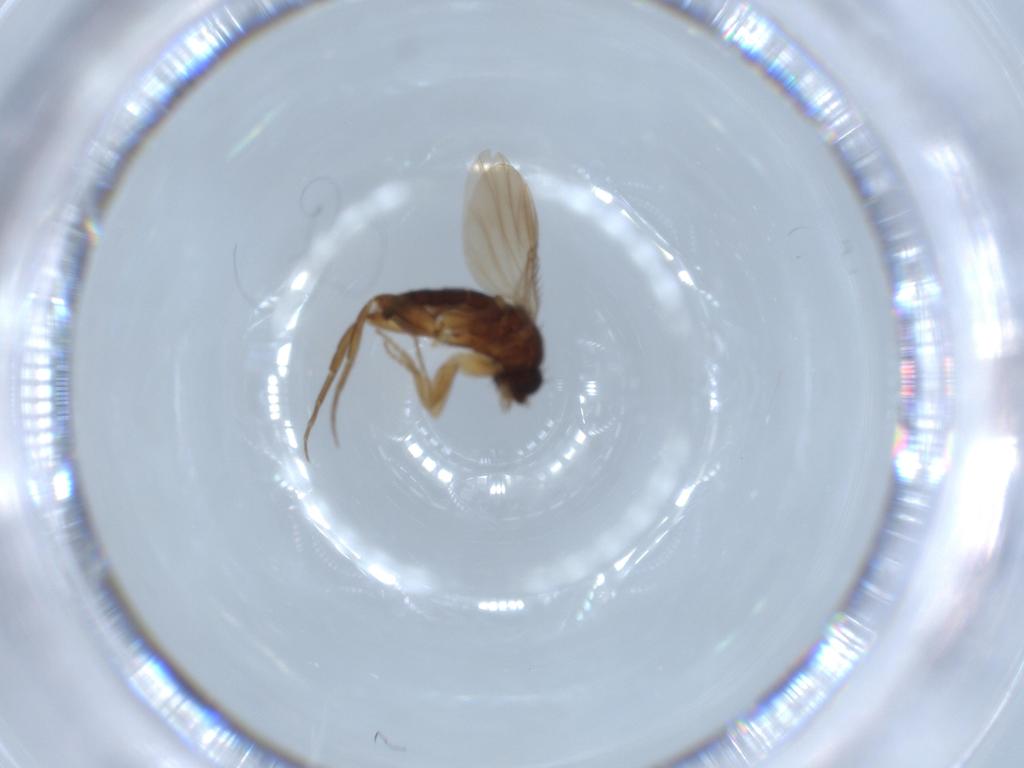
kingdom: Animalia
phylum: Arthropoda
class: Insecta
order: Diptera
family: Phoridae
